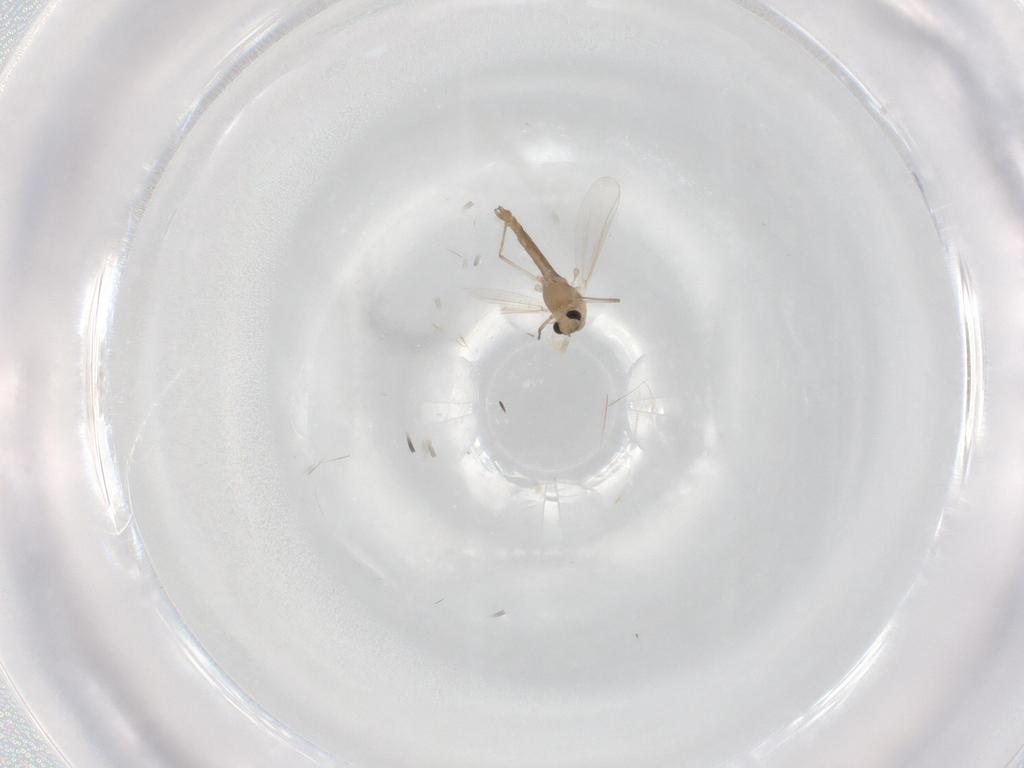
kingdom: Animalia
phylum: Arthropoda
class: Insecta
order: Diptera
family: Chironomidae
